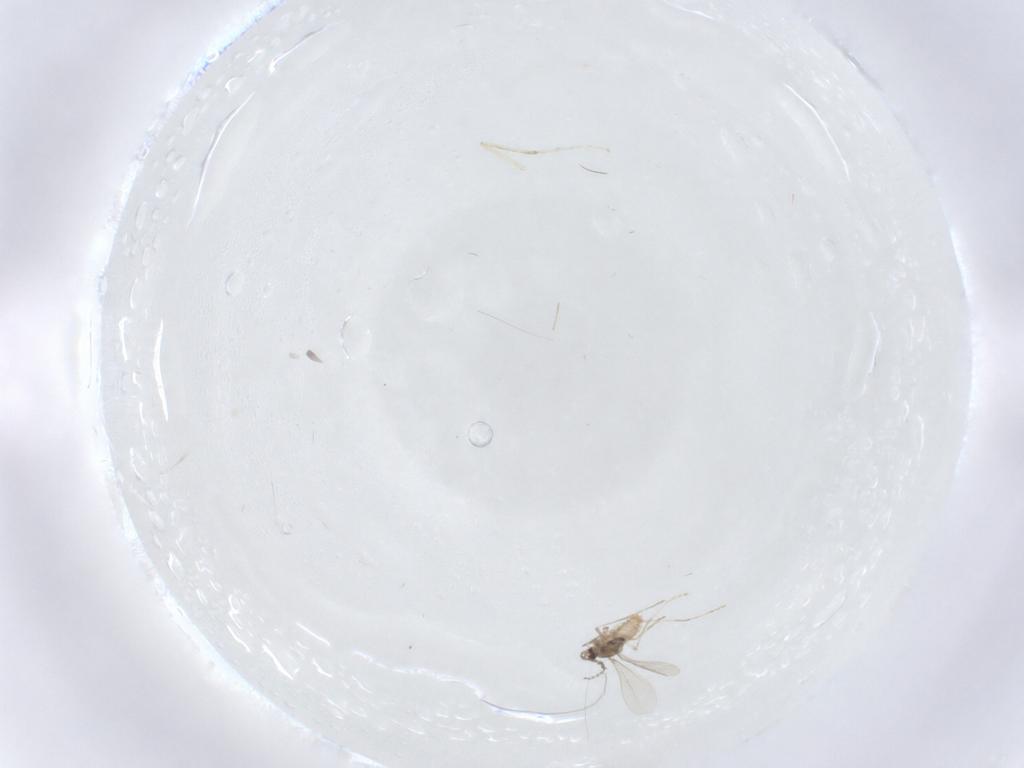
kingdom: Animalia
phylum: Arthropoda
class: Insecta
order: Diptera
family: Cecidomyiidae
